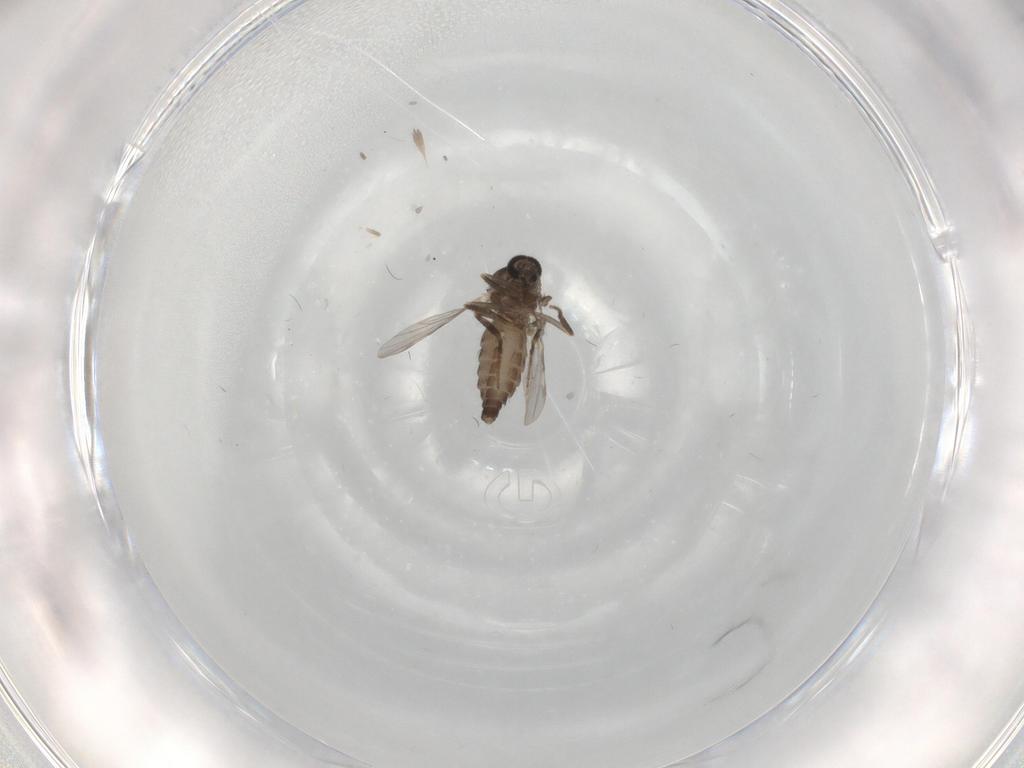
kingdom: Animalia
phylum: Arthropoda
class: Insecta
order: Diptera
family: Ceratopogonidae
